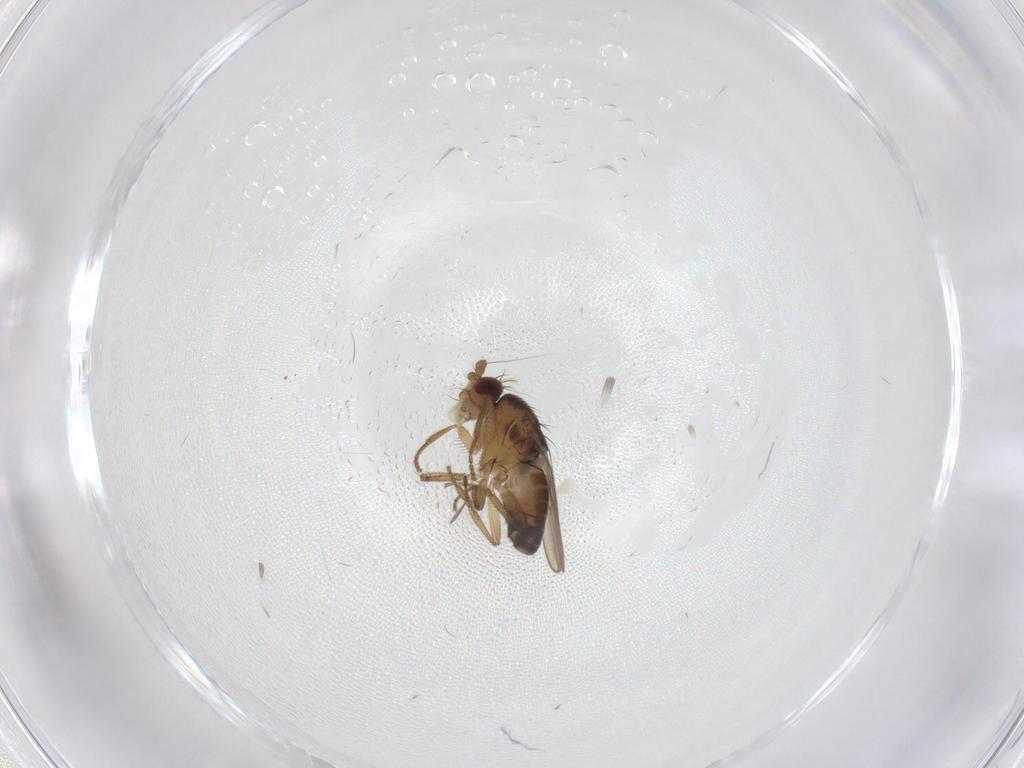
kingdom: Animalia
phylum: Arthropoda
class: Insecta
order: Diptera
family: Sphaeroceridae
